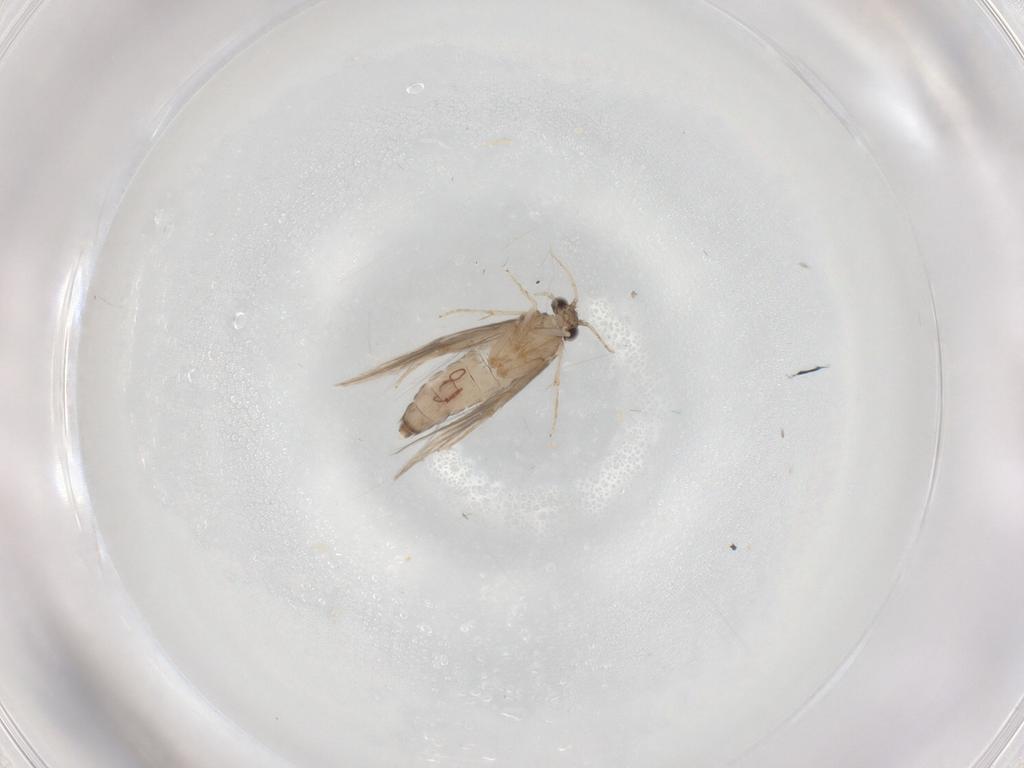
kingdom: Animalia
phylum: Arthropoda
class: Insecta
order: Trichoptera
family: Hydroptilidae
